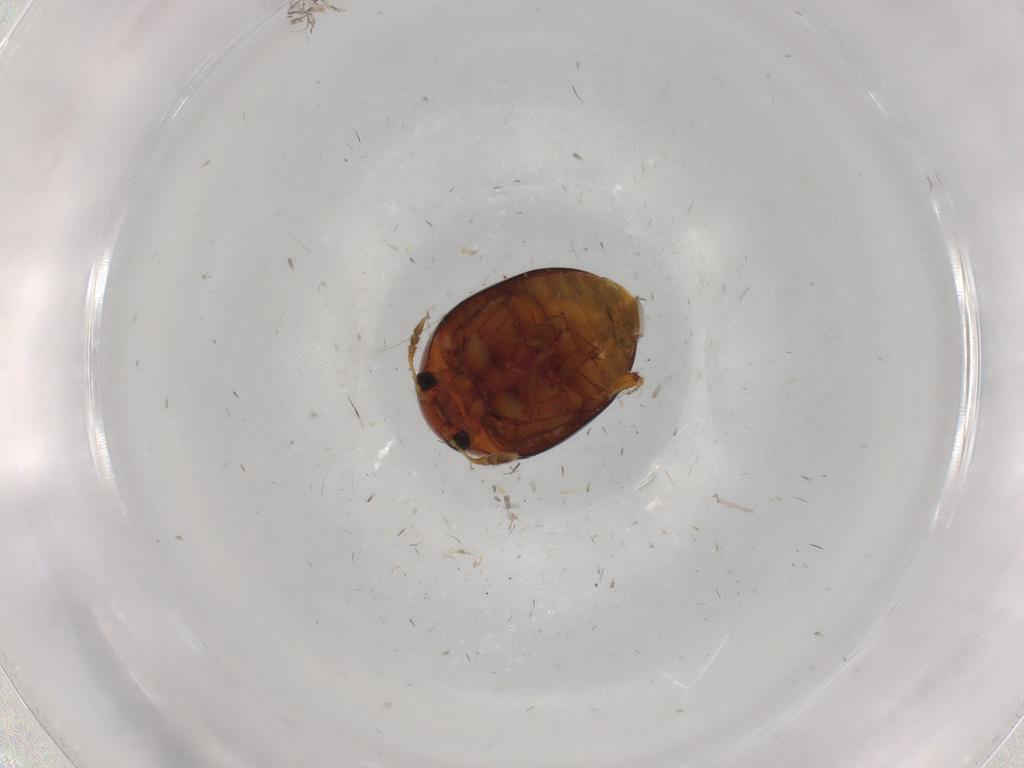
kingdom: Animalia
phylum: Arthropoda
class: Insecta
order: Coleoptera
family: Phalacridae
